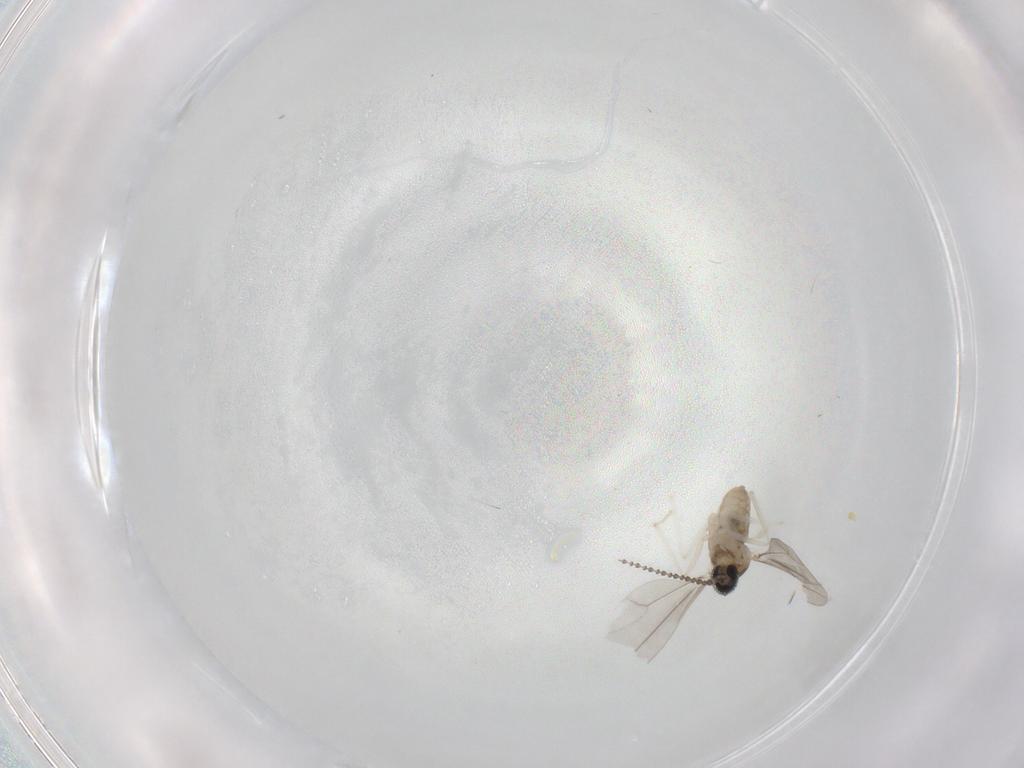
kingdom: Animalia
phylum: Arthropoda
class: Insecta
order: Diptera
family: Cecidomyiidae
